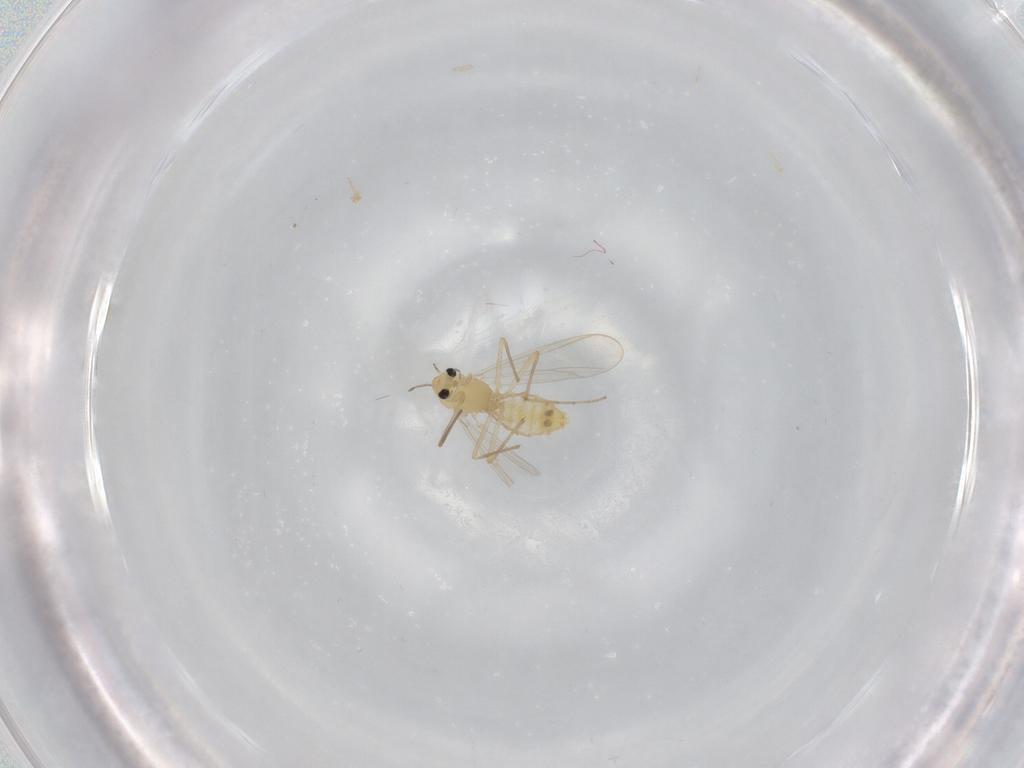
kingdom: Animalia
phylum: Arthropoda
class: Insecta
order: Diptera
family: Chironomidae
